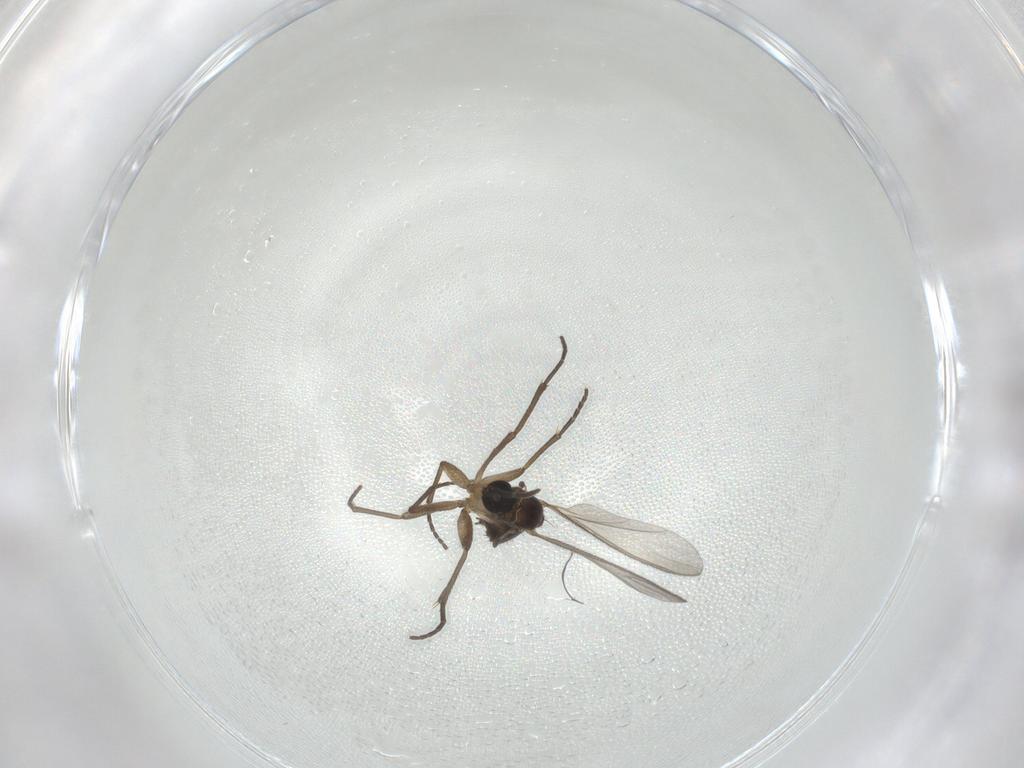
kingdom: Animalia
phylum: Arthropoda
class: Insecta
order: Diptera
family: Sciaridae
